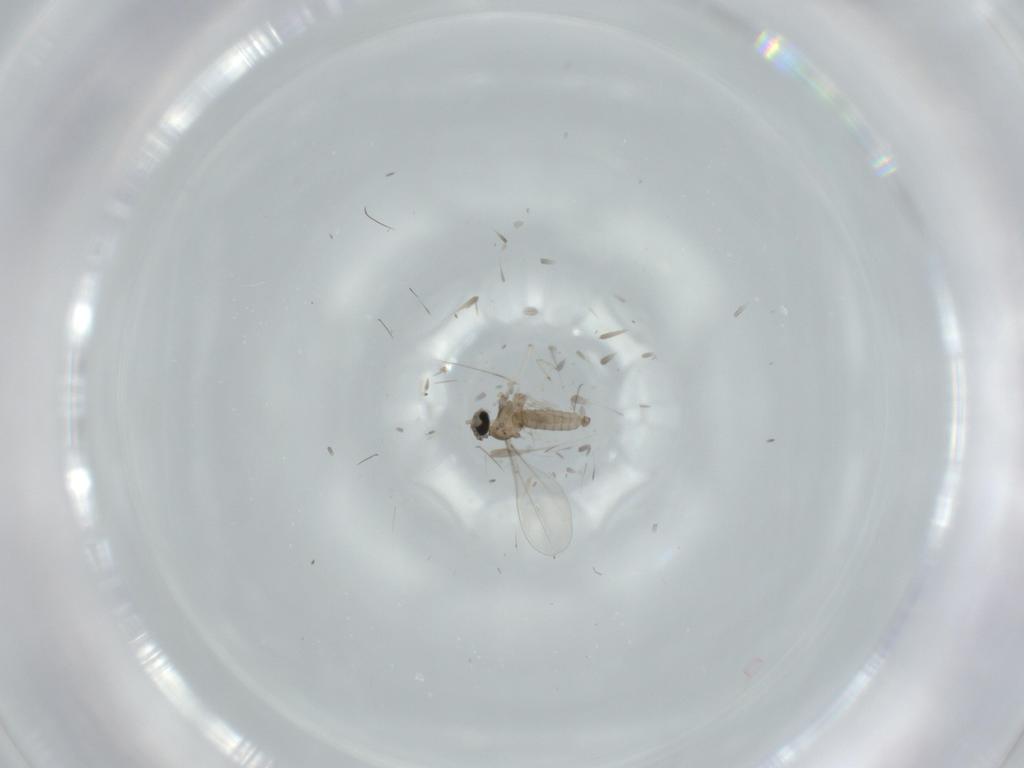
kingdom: Animalia
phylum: Arthropoda
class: Insecta
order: Diptera
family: Cecidomyiidae
